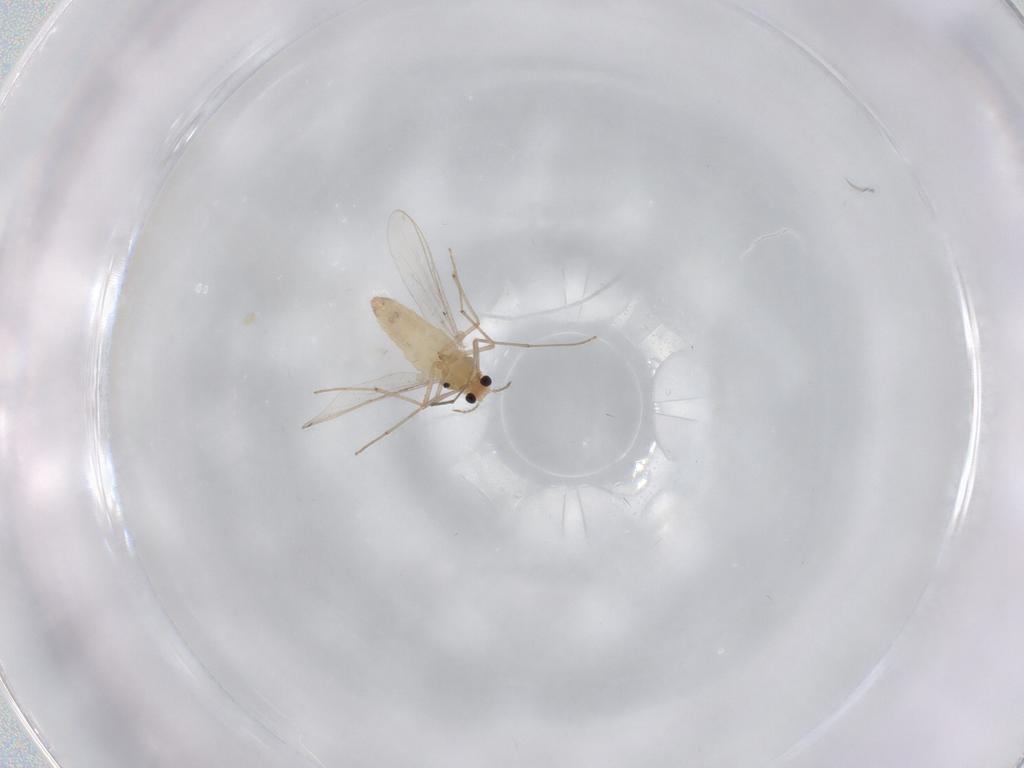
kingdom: Animalia
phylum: Arthropoda
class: Insecta
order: Diptera
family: Chironomidae
